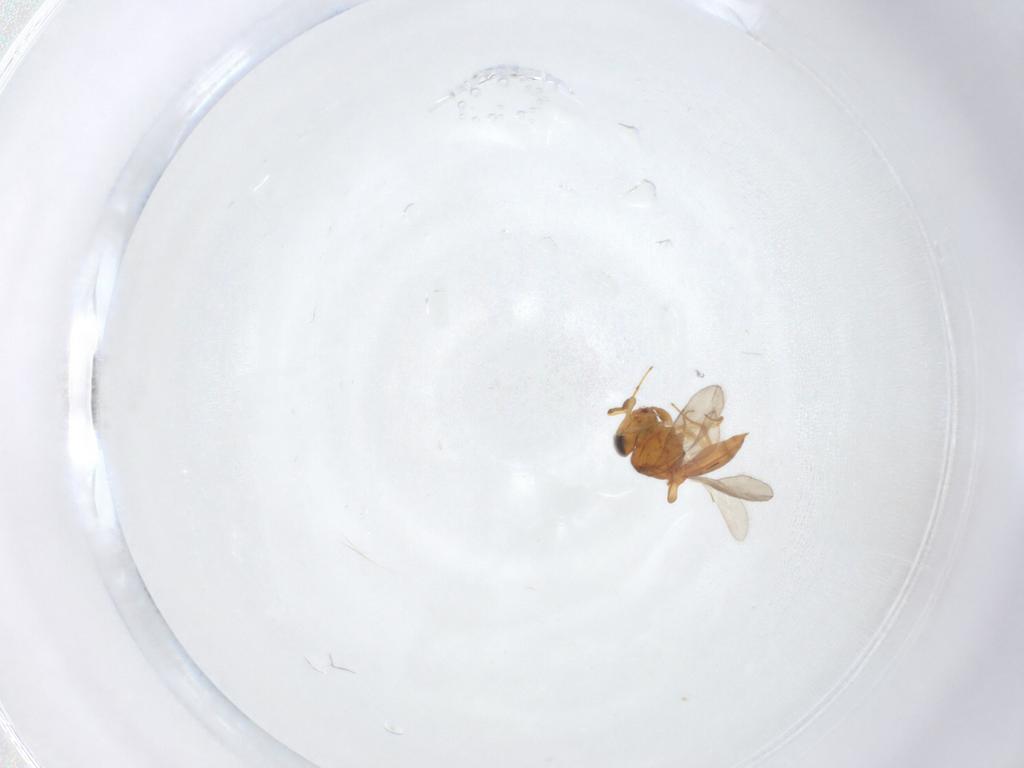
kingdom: Animalia
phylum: Arthropoda
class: Insecta
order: Hymenoptera
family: Scelionidae
